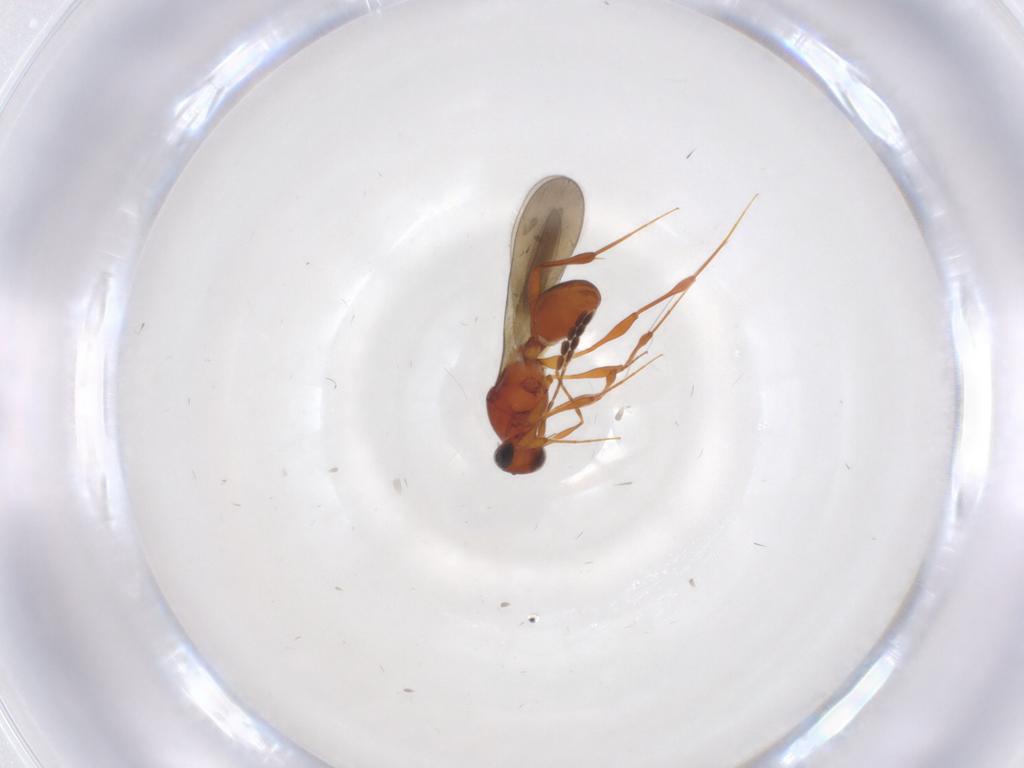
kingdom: Animalia
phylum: Arthropoda
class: Insecta
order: Hymenoptera
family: Platygastridae
